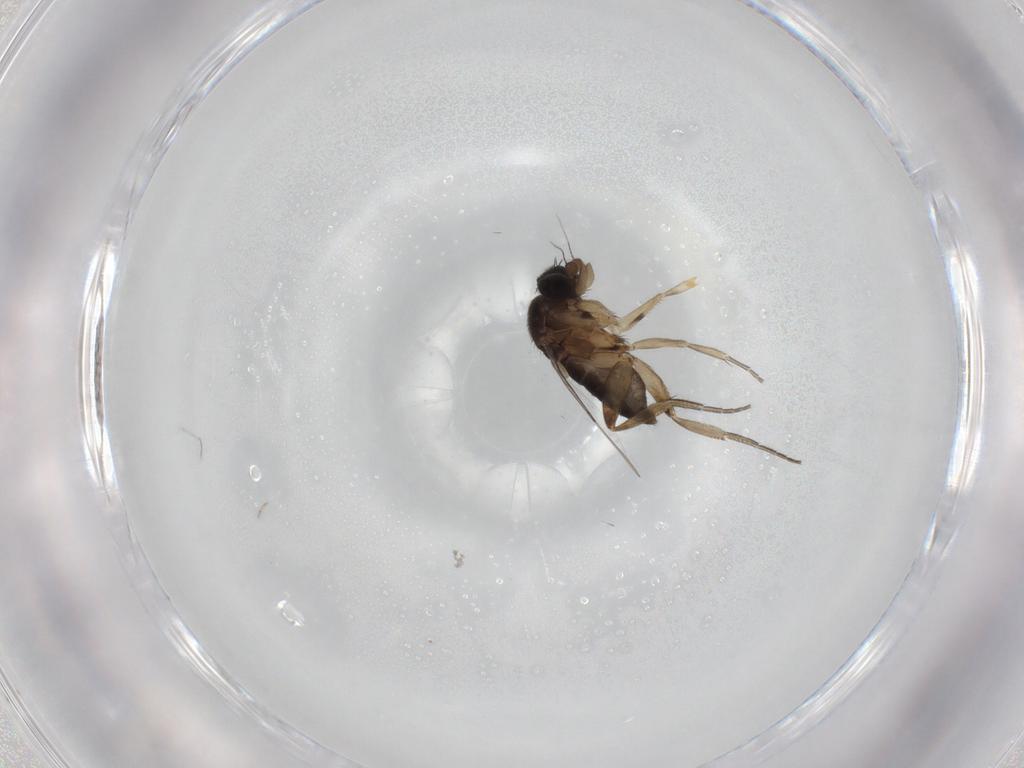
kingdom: Animalia
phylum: Arthropoda
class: Insecta
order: Diptera
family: Phoridae
